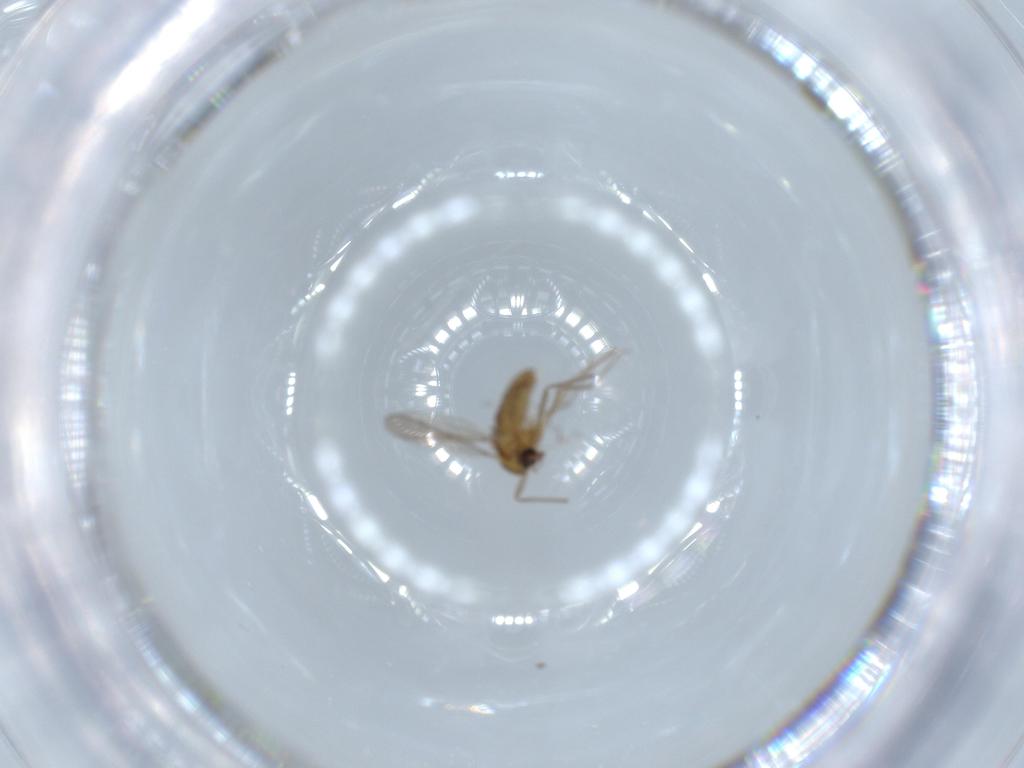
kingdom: Animalia
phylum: Arthropoda
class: Insecta
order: Diptera
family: Chironomidae
